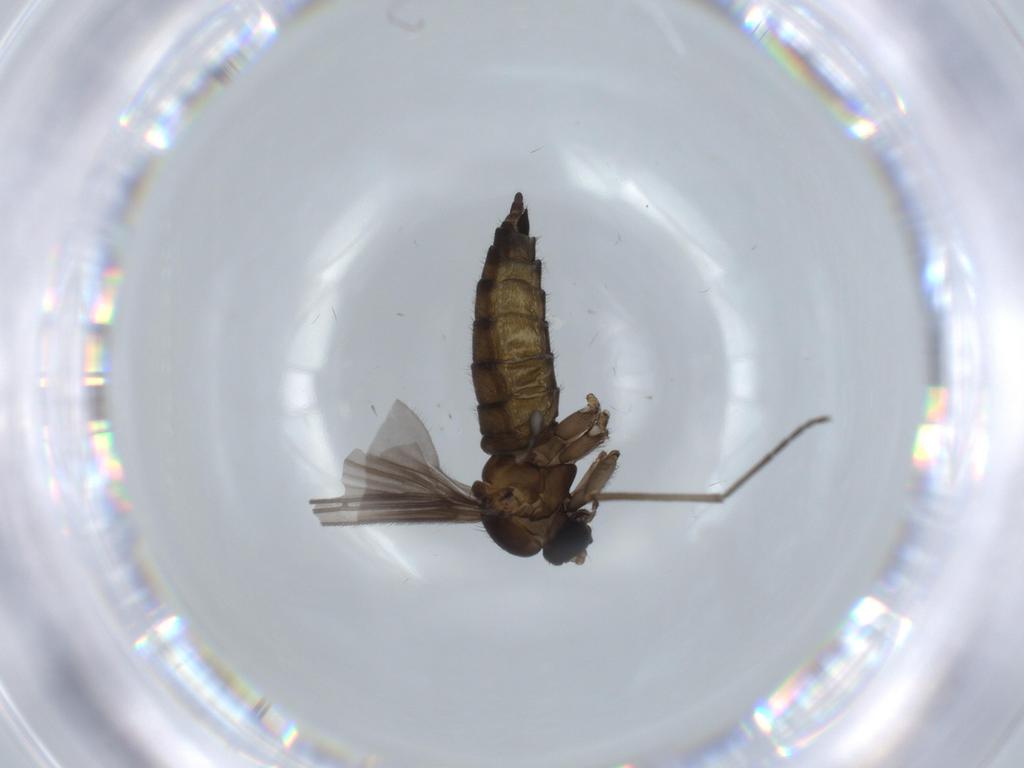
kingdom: Animalia
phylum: Arthropoda
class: Insecta
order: Diptera
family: Sciaridae
